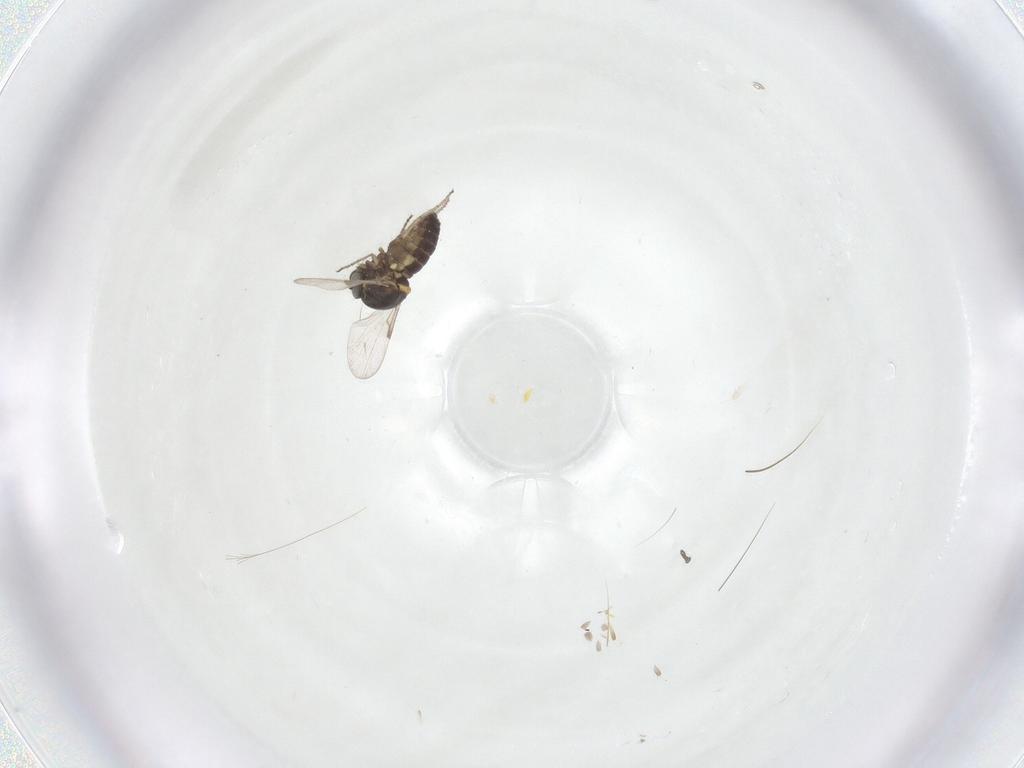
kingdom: Animalia
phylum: Arthropoda
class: Insecta
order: Diptera
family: Ceratopogonidae
